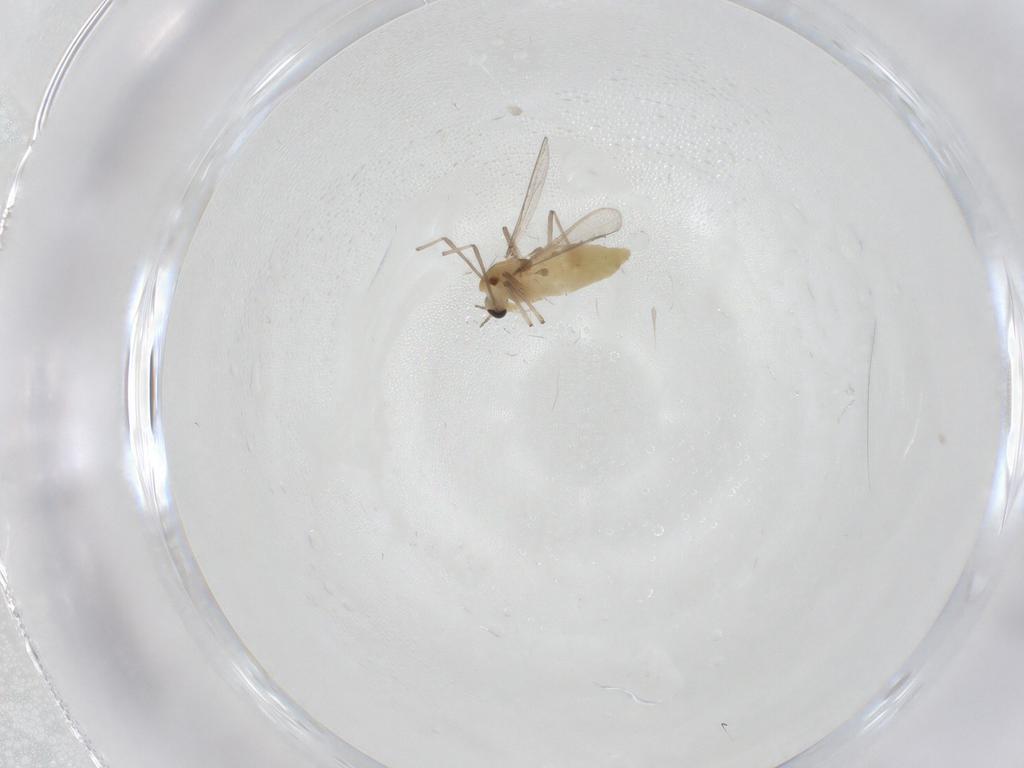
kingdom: Animalia
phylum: Arthropoda
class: Insecta
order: Diptera
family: Chironomidae
